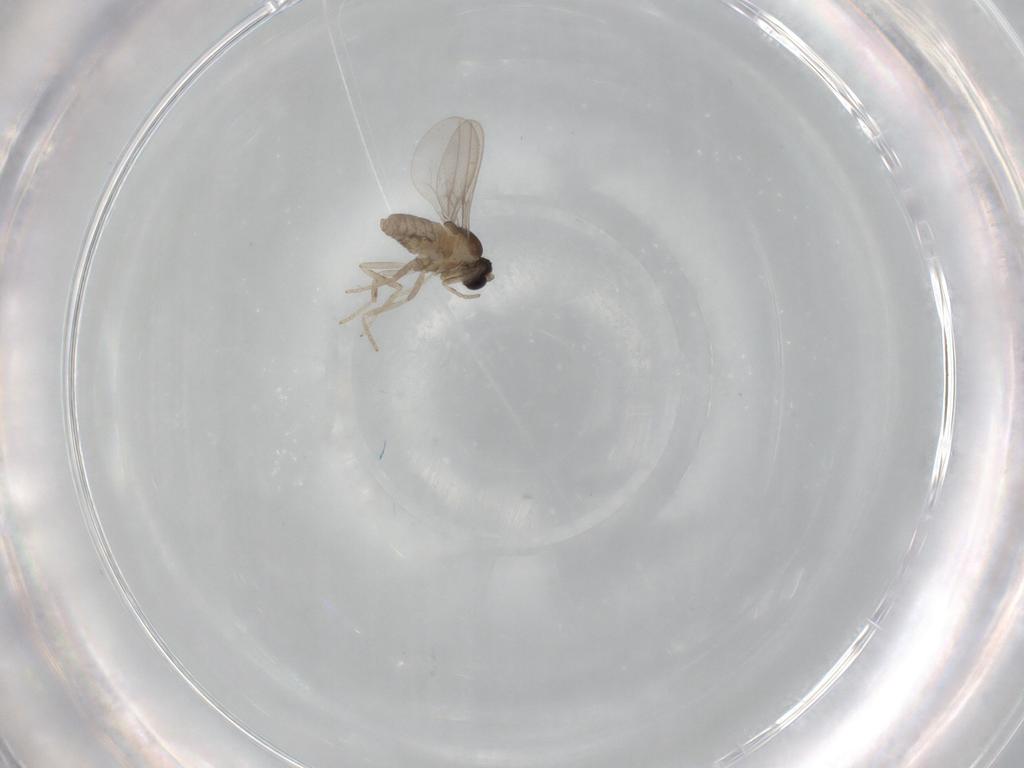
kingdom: Animalia
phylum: Arthropoda
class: Insecta
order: Diptera
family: Cecidomyiidae
